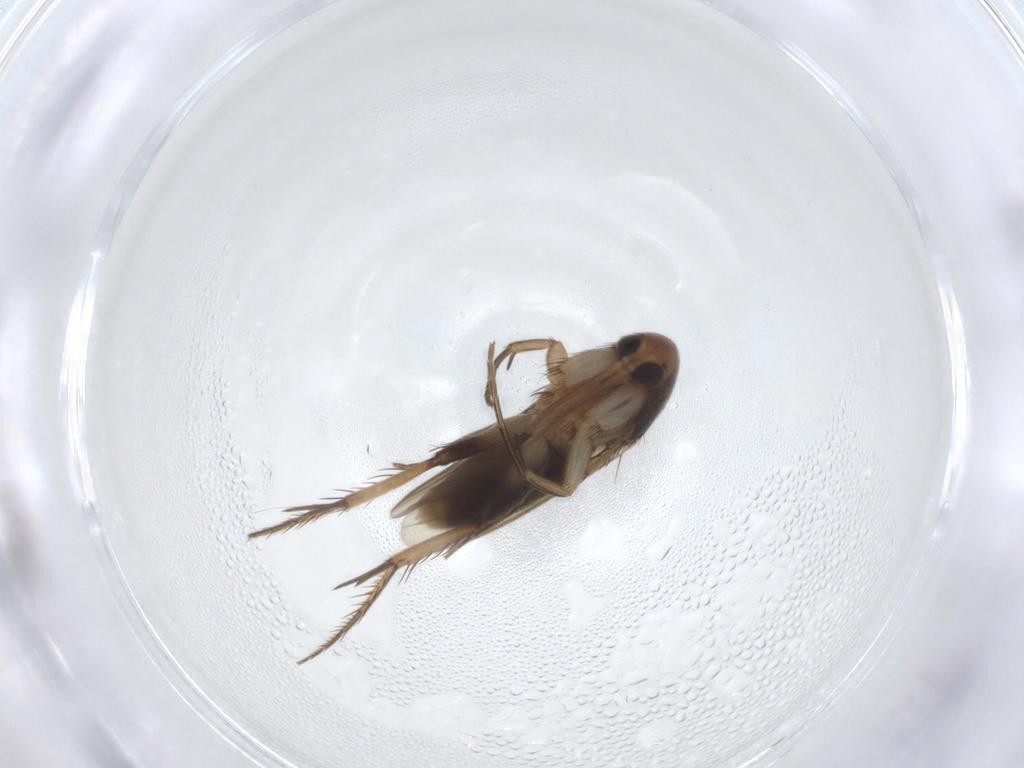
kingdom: Animalia
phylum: Arthropoda
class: Insecta
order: Diptera
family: Mycetophilidae
